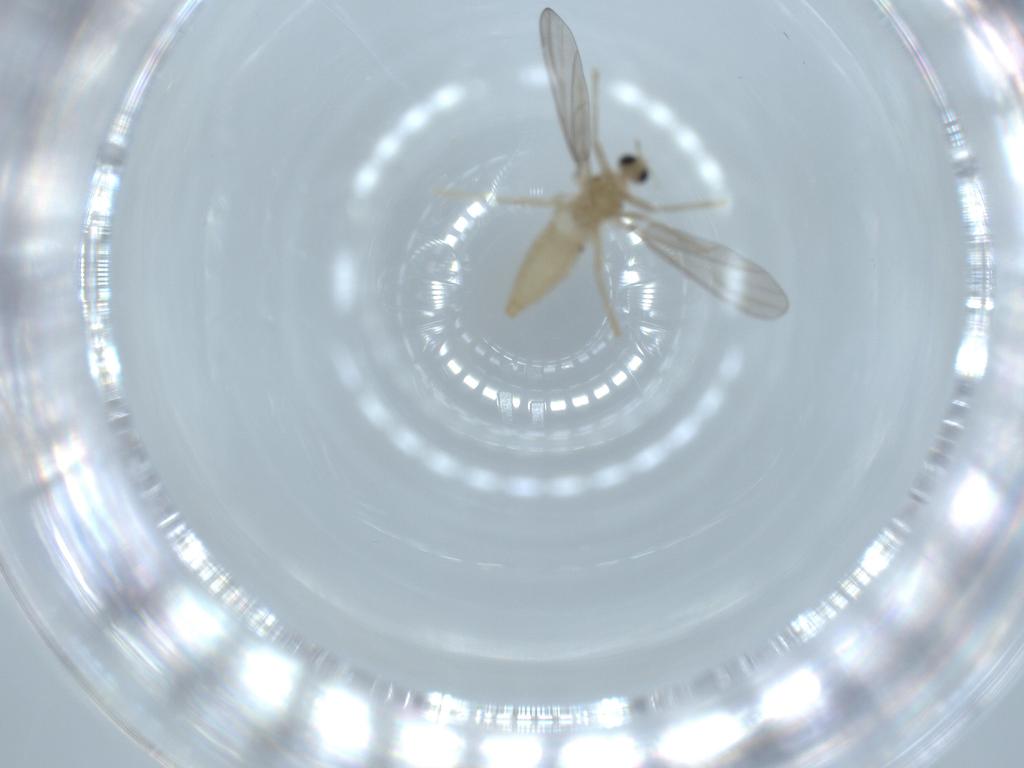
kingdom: Animalia
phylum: Arthropoda
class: Insecta
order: Diptera
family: Cecidomyiidae
